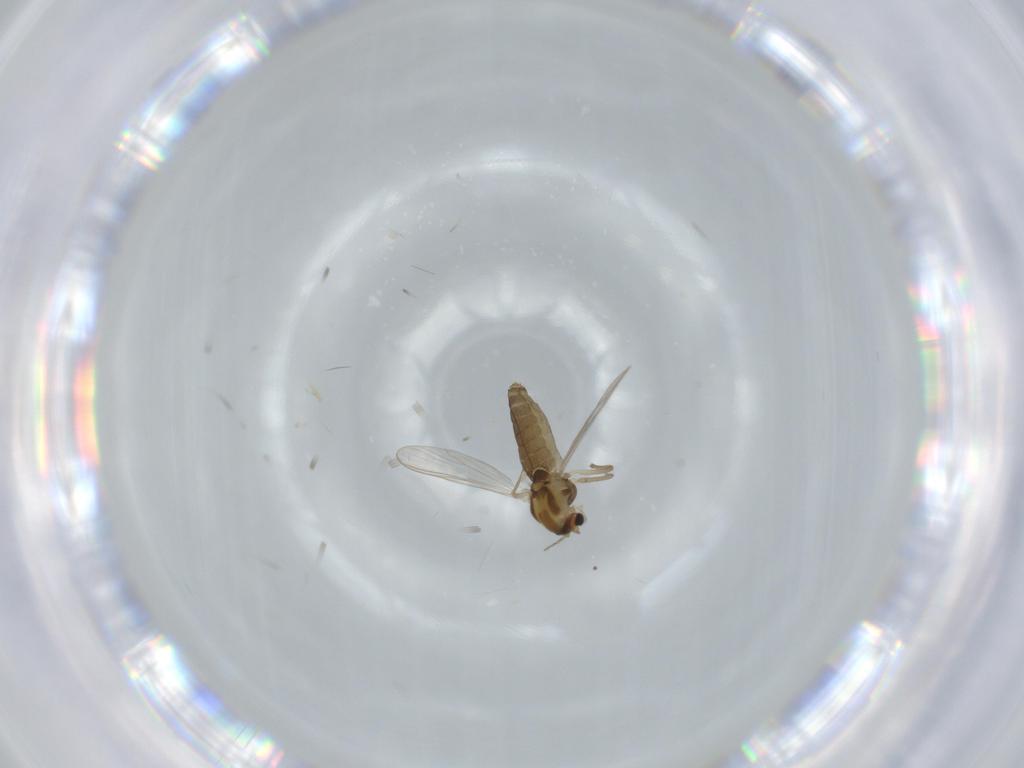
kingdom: Animalia
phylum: Arthropoda
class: Insecta
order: Diptera
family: Chironomidae
